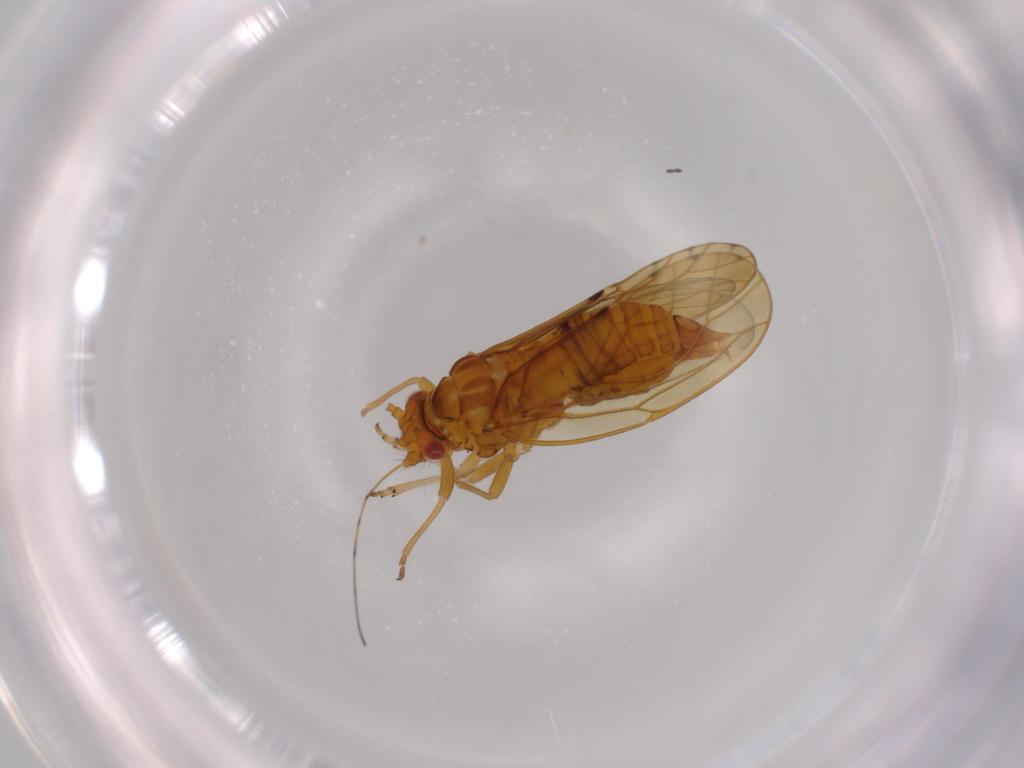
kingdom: Animalia
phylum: Arthropoda
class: Insecta
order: Hemiptera
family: Aleyrodidae
